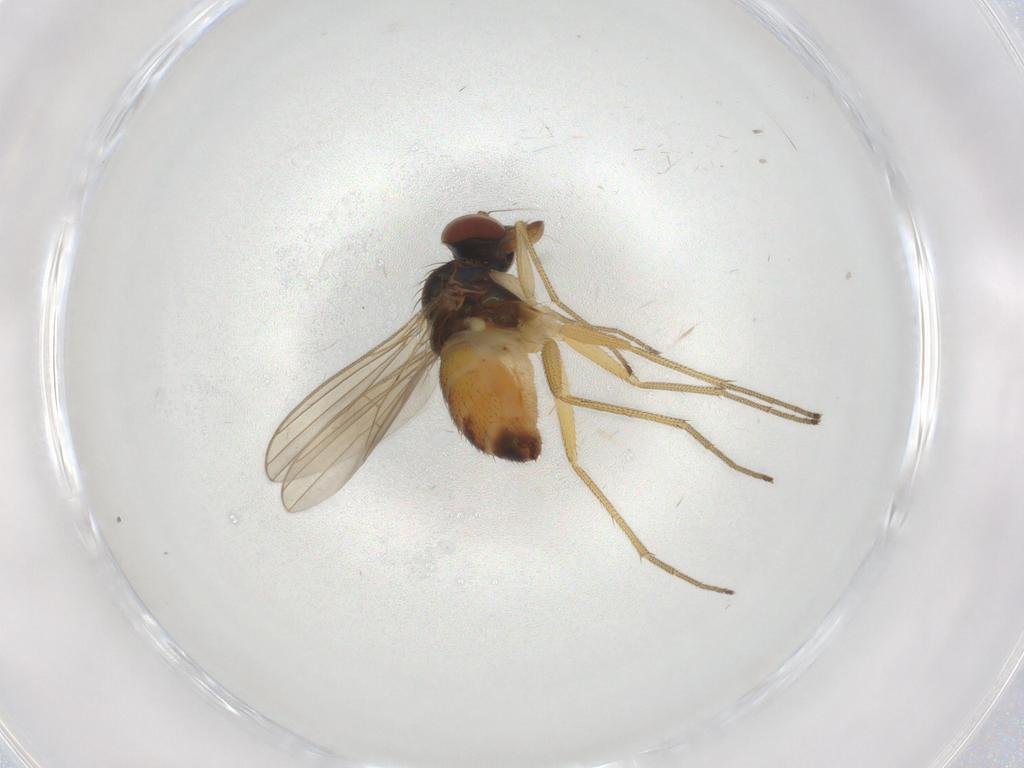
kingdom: Animalia
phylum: Arthropoda
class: Insecta
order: Diptera
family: Dolichopodidae
